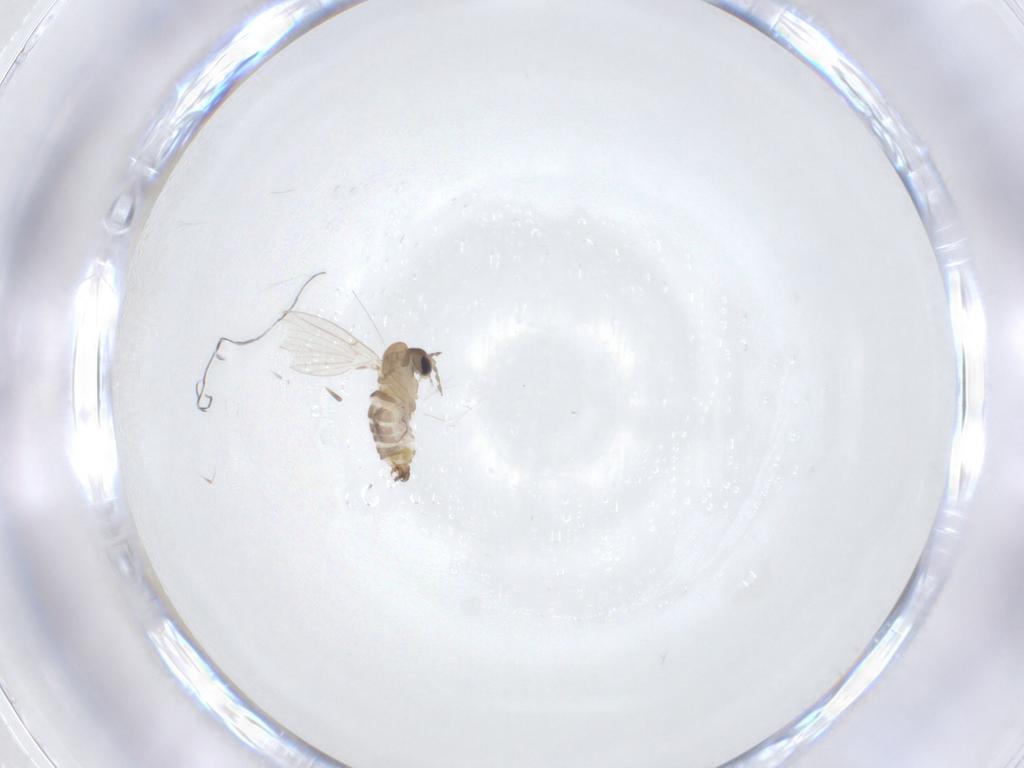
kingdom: Animalia
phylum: Arthropoda
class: Insecta
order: Diptera
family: Psychodidae
